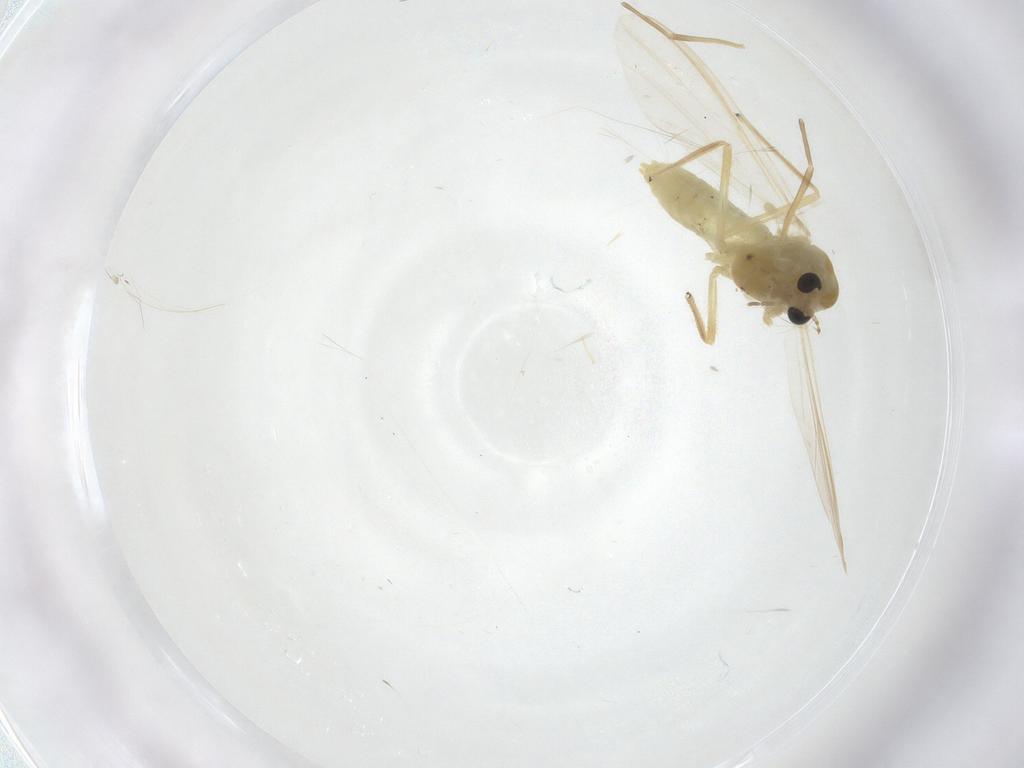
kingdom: Animalia
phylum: Arthropoda
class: Insecta
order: Diptera
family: Chironomidae
